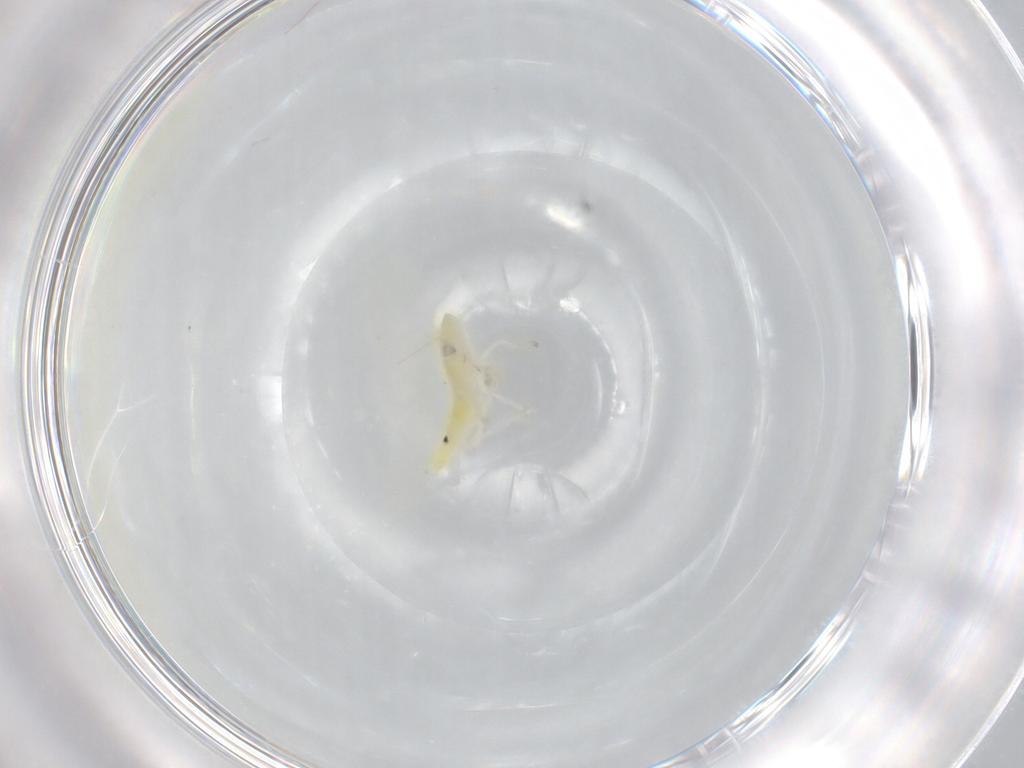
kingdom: Animalia
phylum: Arthropoda
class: Insecta
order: Hemiptera
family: Cicadellidae
